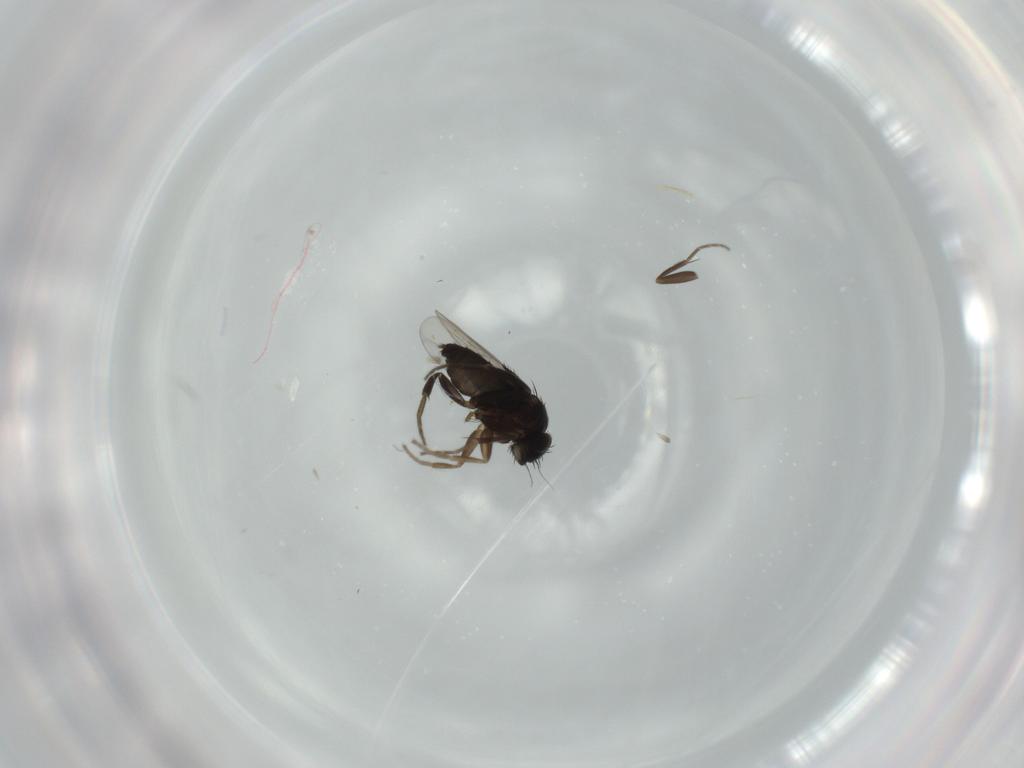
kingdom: Animalia
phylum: Arthropoda
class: Insecta
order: Diptera
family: Phoridae
